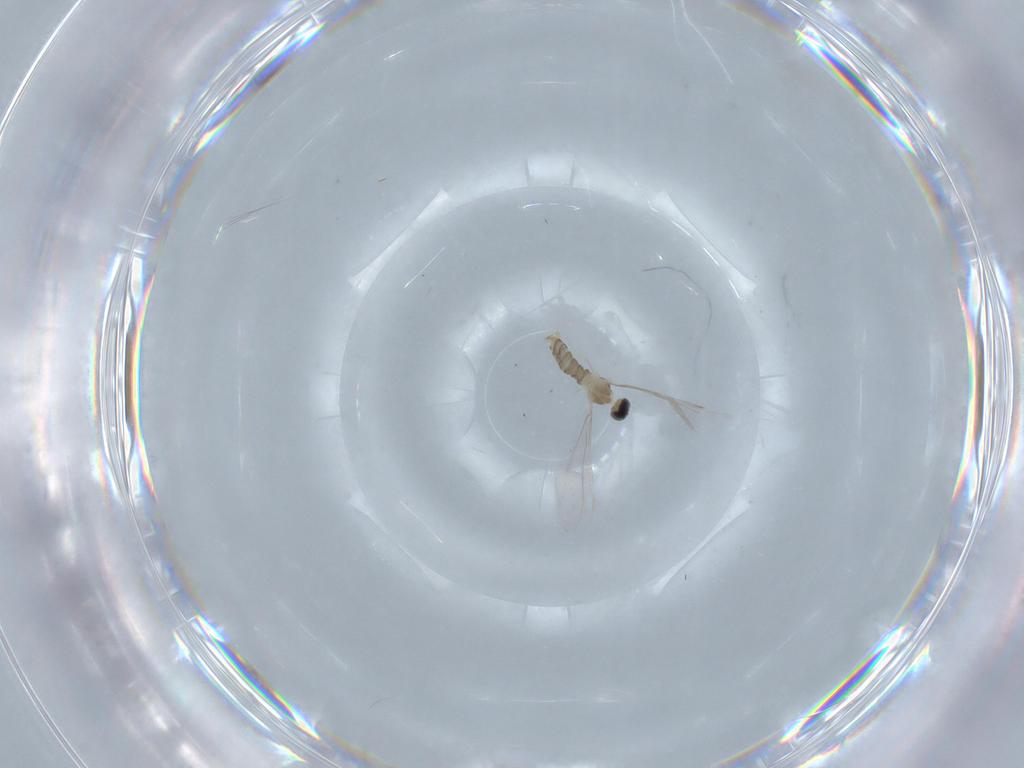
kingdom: Animalia
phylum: Arthropoda
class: Insecta
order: Diptera
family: Cecidomyiidae
